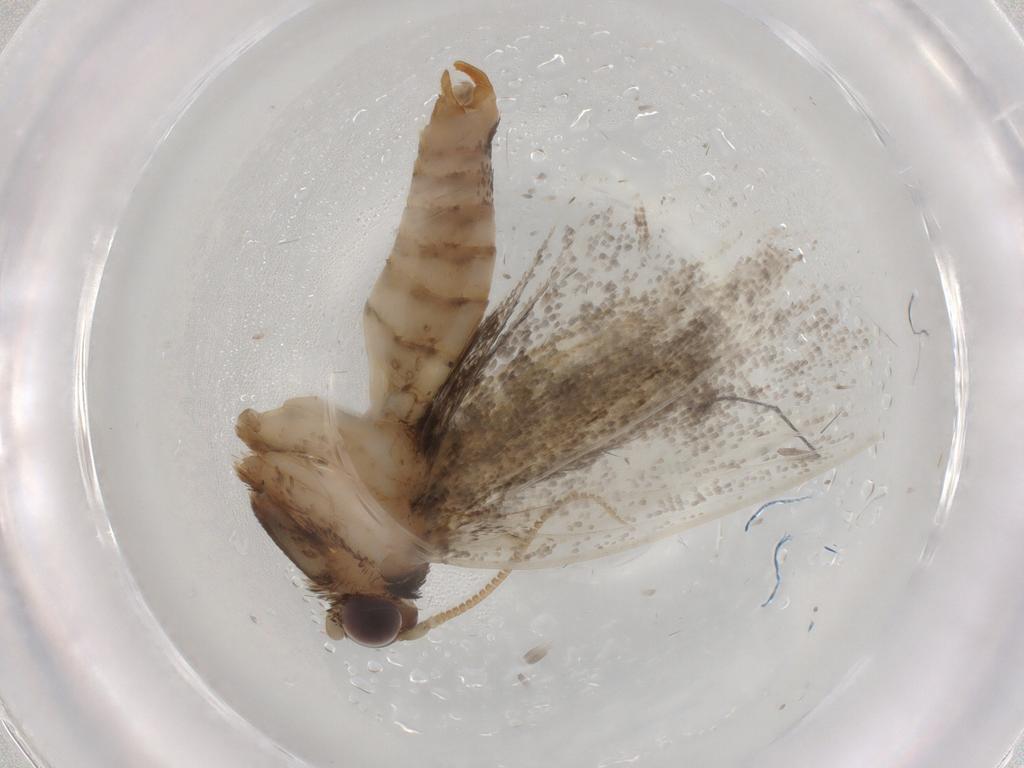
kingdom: Animalia
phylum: Arthropoda
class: Insecta
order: Lepidoptera
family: Tineidae
